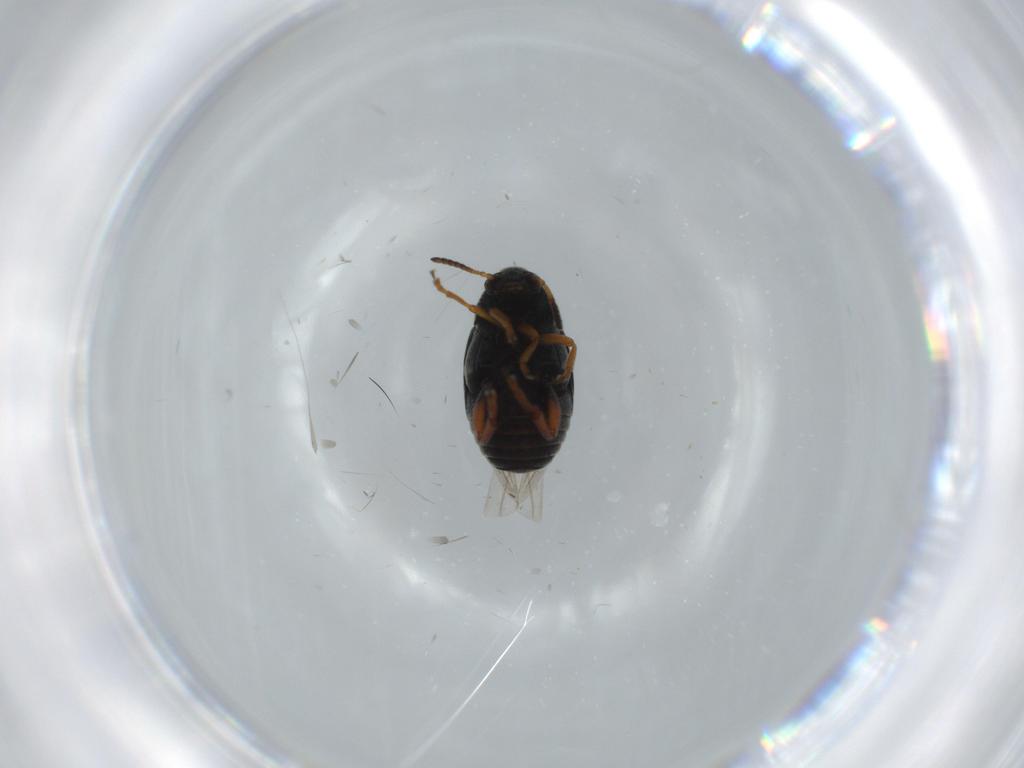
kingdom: Animalia
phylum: Arthropoda
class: Insecta
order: Coleoptera
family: Chrysomelidae
